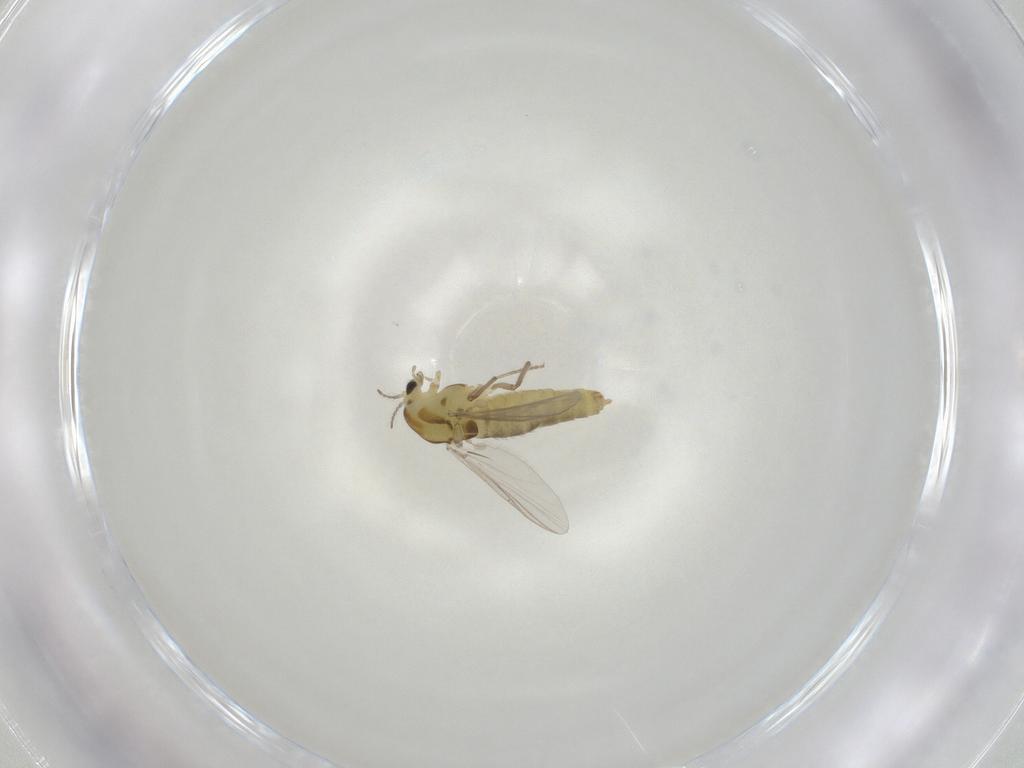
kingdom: Animalia
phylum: Arthropoda
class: Insecta
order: Diptera
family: Chironomidae
